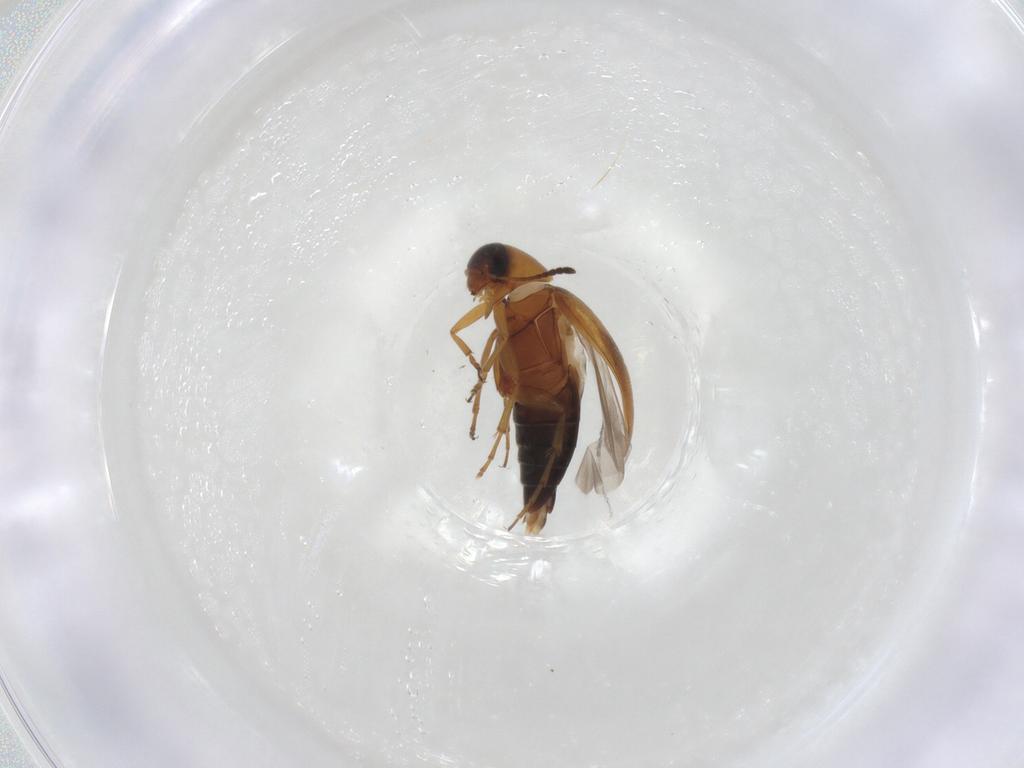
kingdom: Animalia
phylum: Arthropoda
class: Insecta
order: Coleoptera
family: Scraptiidae
